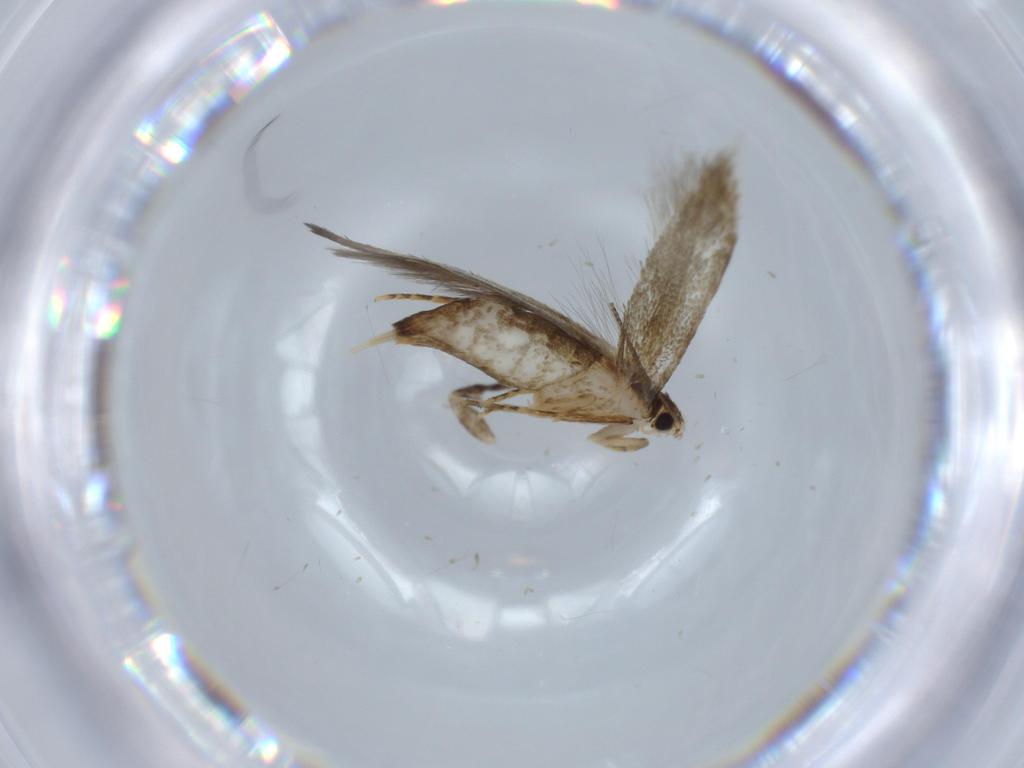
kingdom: Animalia
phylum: Arthropoda
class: Insecta
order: Lepidoptera
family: Tineidae
